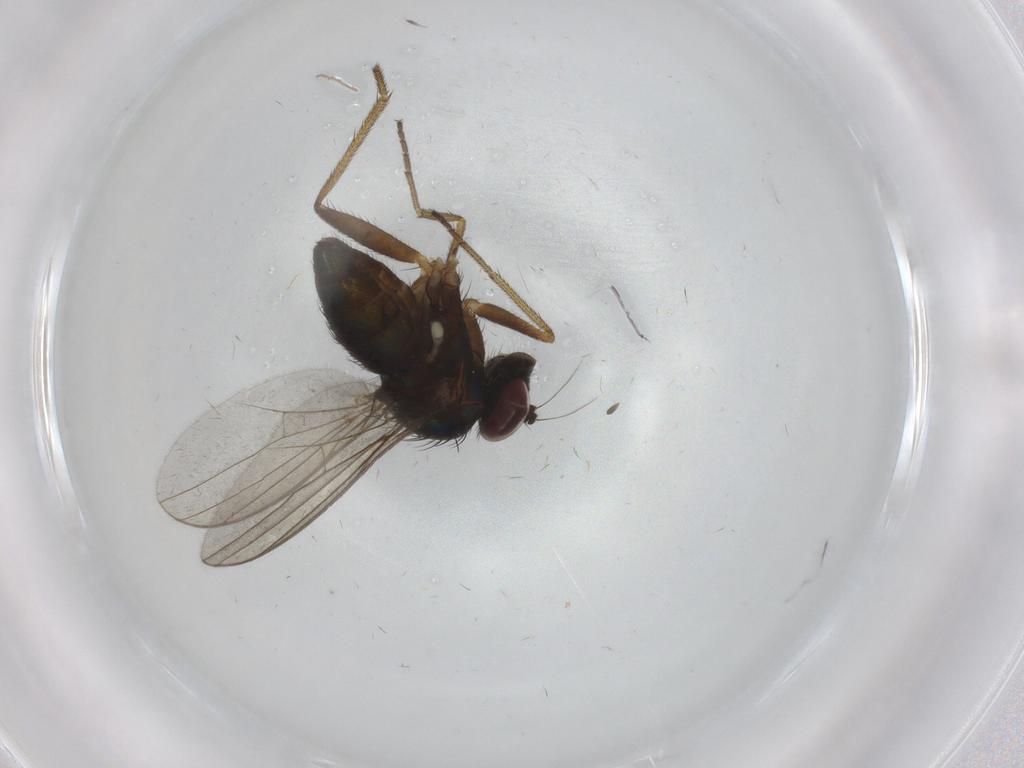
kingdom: Animalia
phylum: Arthropoda
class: Insecta
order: Diptera
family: Sciaridae
